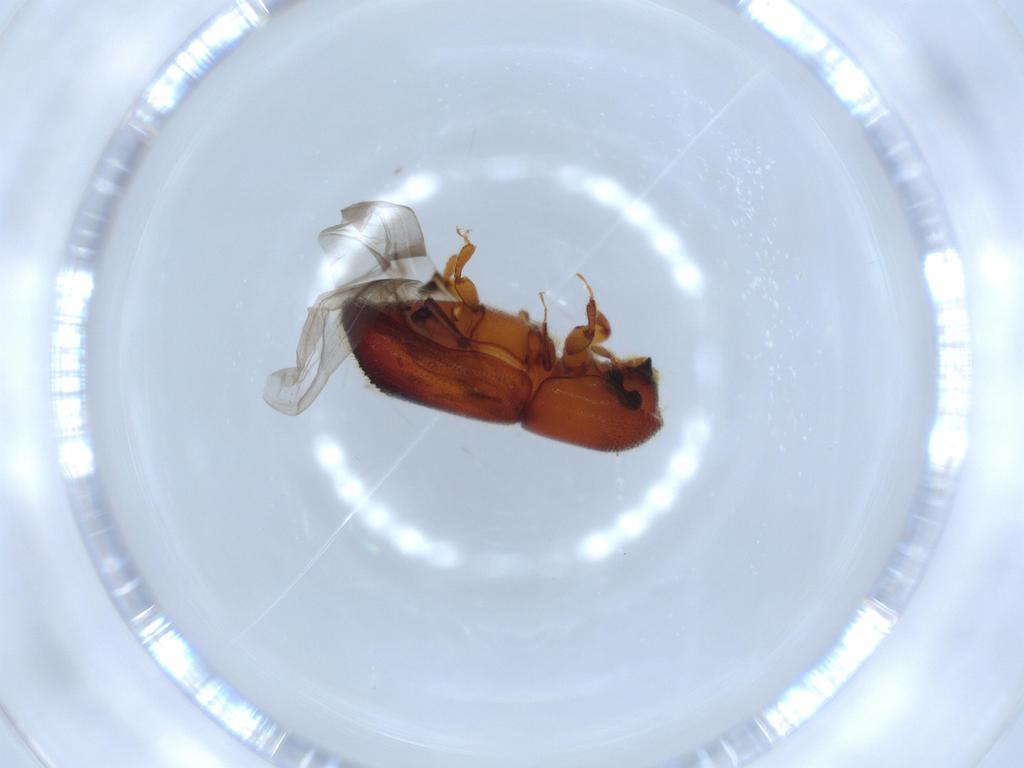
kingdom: Animalia
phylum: Arthropoda
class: Insecta
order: Coleoptera
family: Curculionidae
